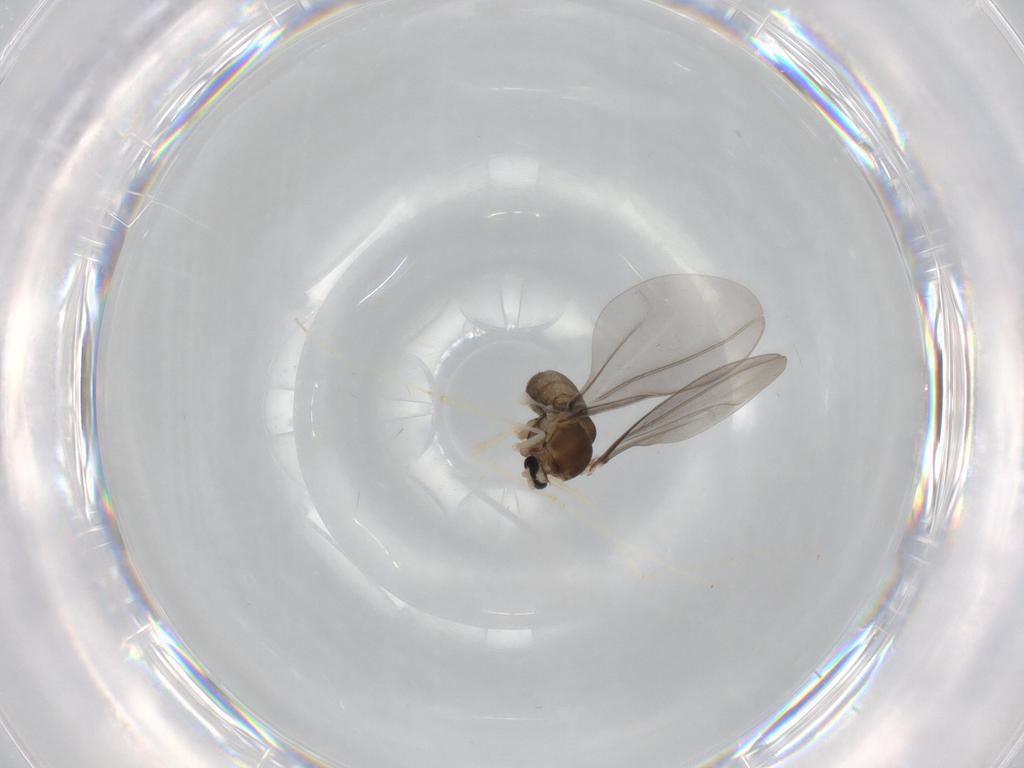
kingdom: Animalia
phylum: Arthropoda
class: Insecta
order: Diptera
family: Cecidomyiidae
